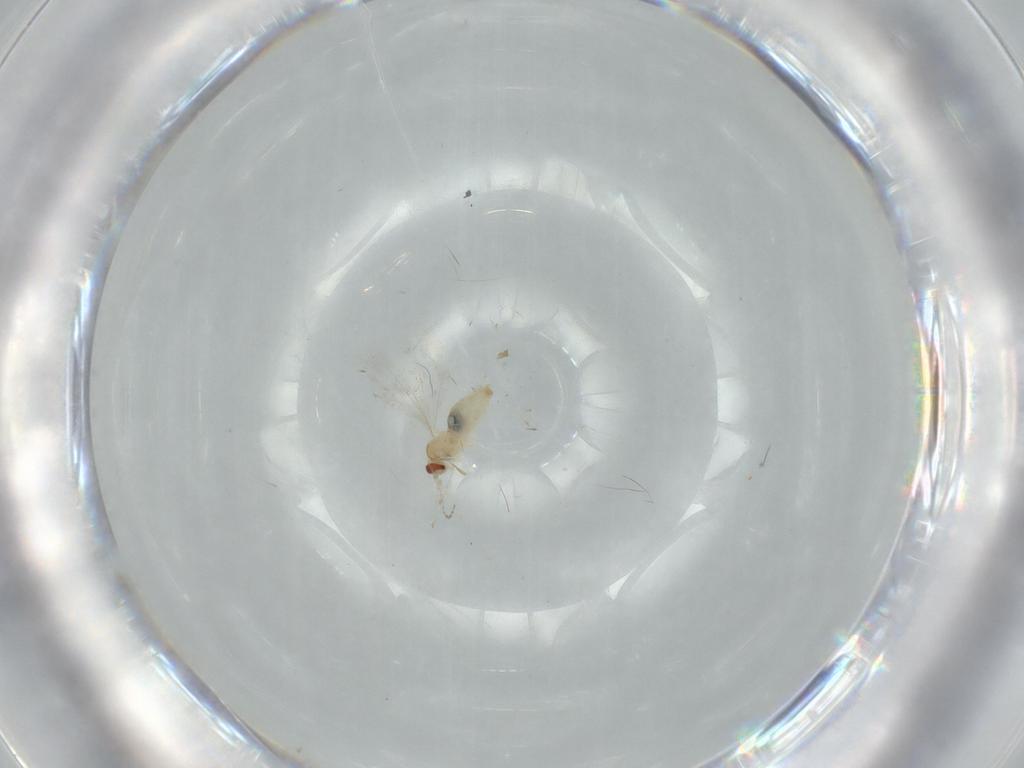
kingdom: Animalia
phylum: Arthropoda
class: Insecta
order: Diptera
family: Cecidomyiidae
